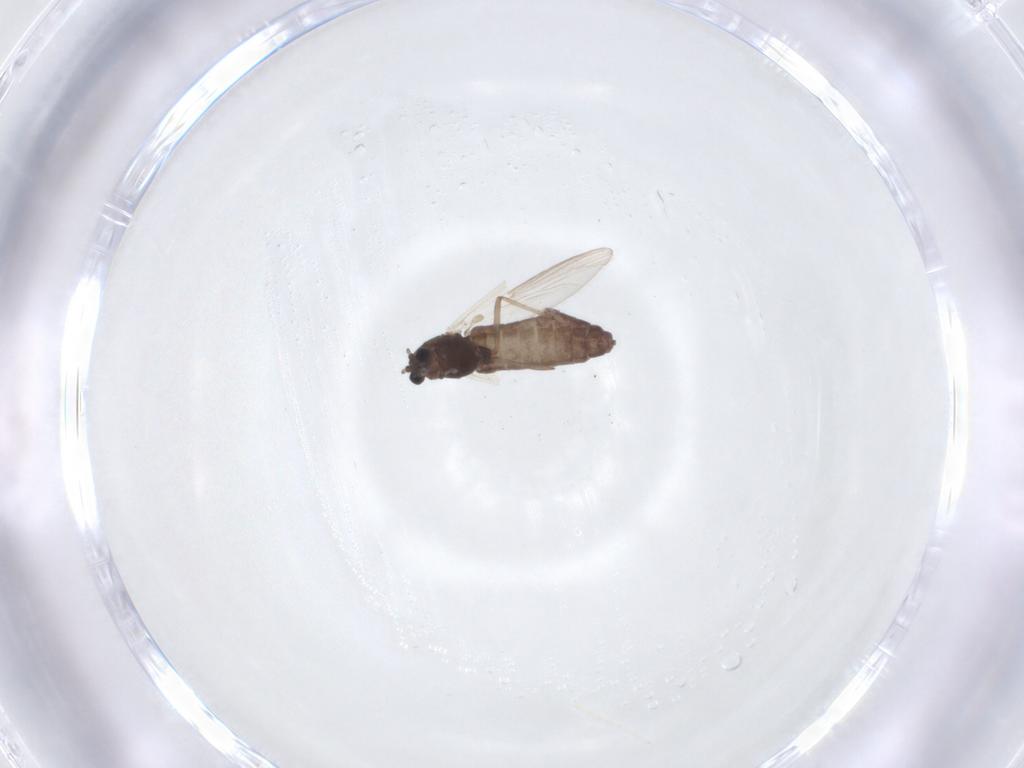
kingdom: Animalia
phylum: Arthropoda
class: Insecta
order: Diptera
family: Chironomidae
